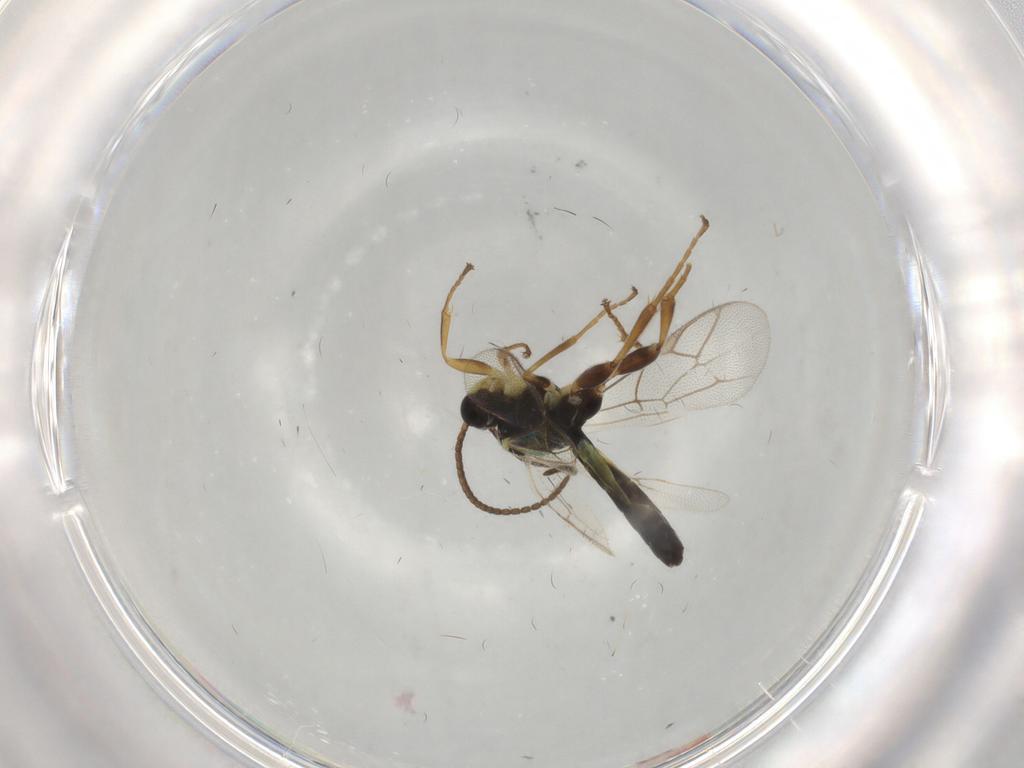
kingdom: Animalia
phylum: Arthropoda
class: Insecta
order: Hymenoptera
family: Ichneumonidae
